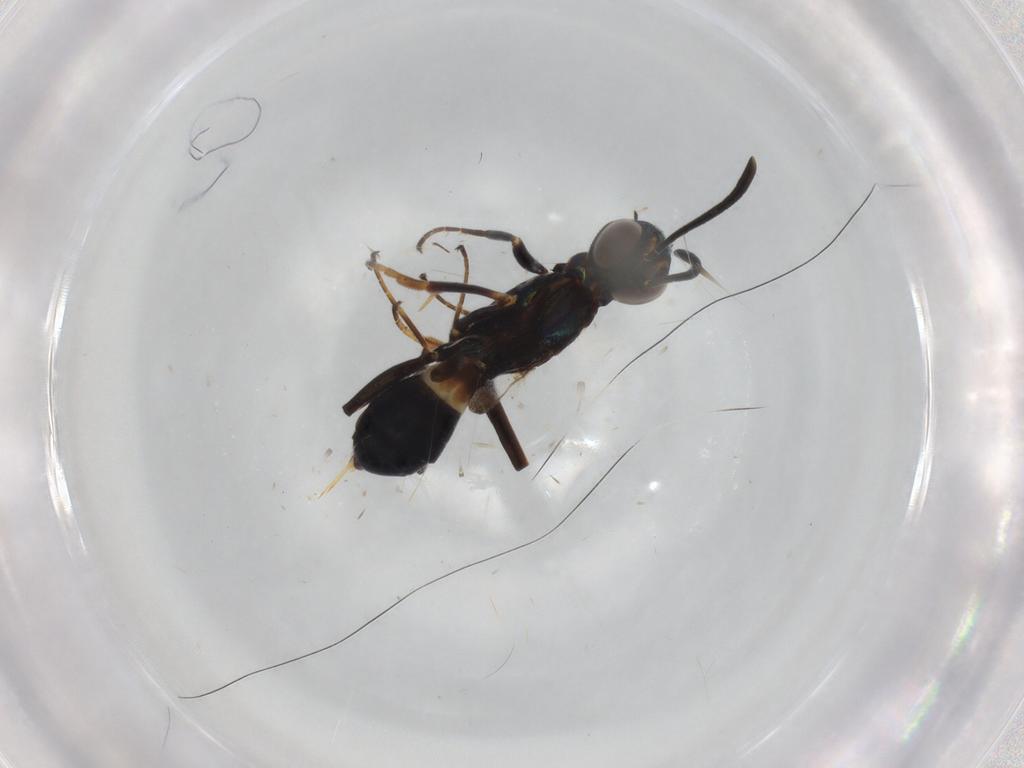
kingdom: Animalia
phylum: Arthropoda
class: Insecta
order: Hymenoptera
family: Eupelmidae
